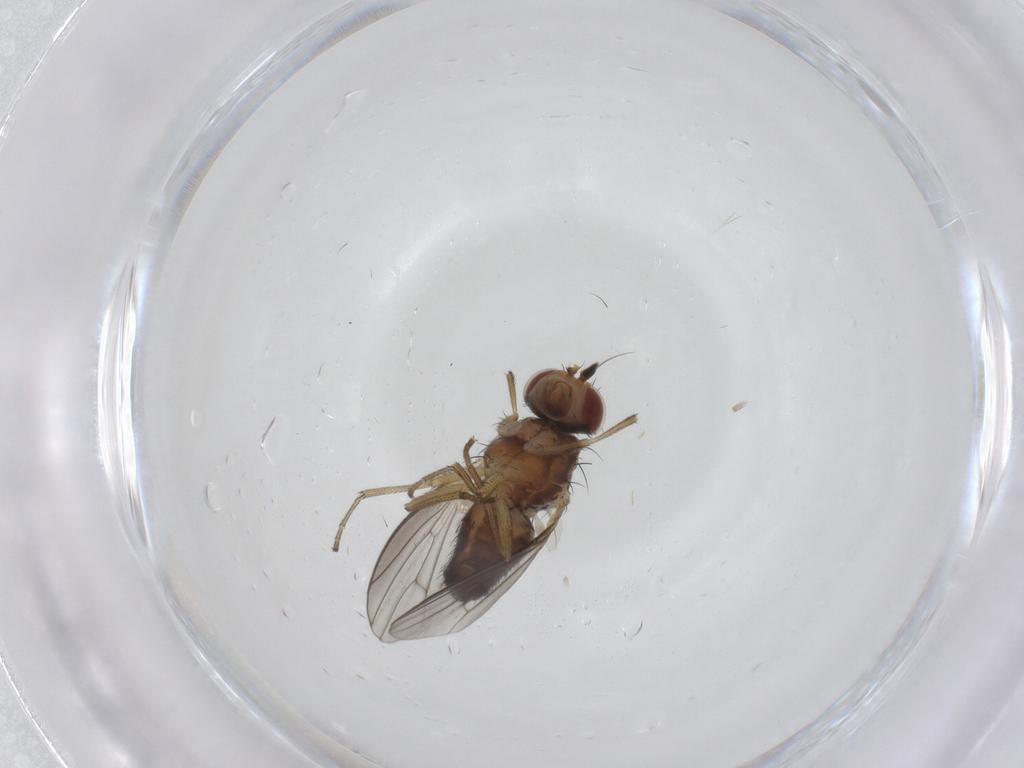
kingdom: Animalia
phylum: Arthropoda
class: Insecta
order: Diptera
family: Heleomyzidae
